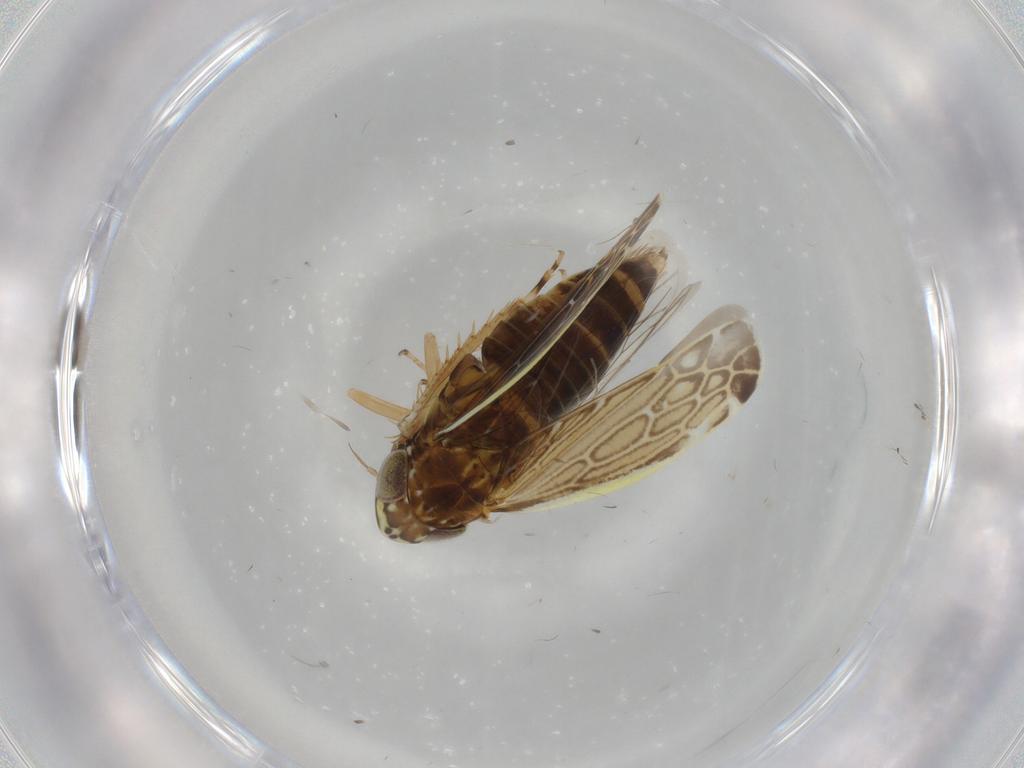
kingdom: Animalia
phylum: Arthropoda
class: Insecta
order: Hemiptera
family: Cicadellidae
